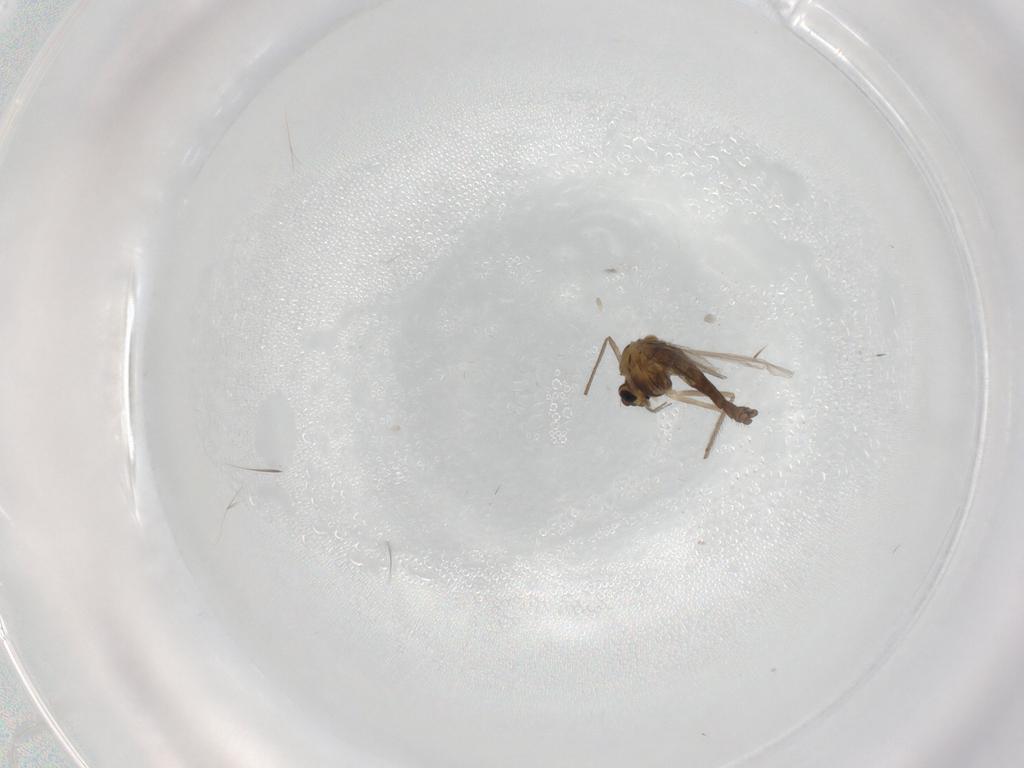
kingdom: Animalia
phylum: Arthropoda
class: Insecta
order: Diptera
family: Chironomidae
